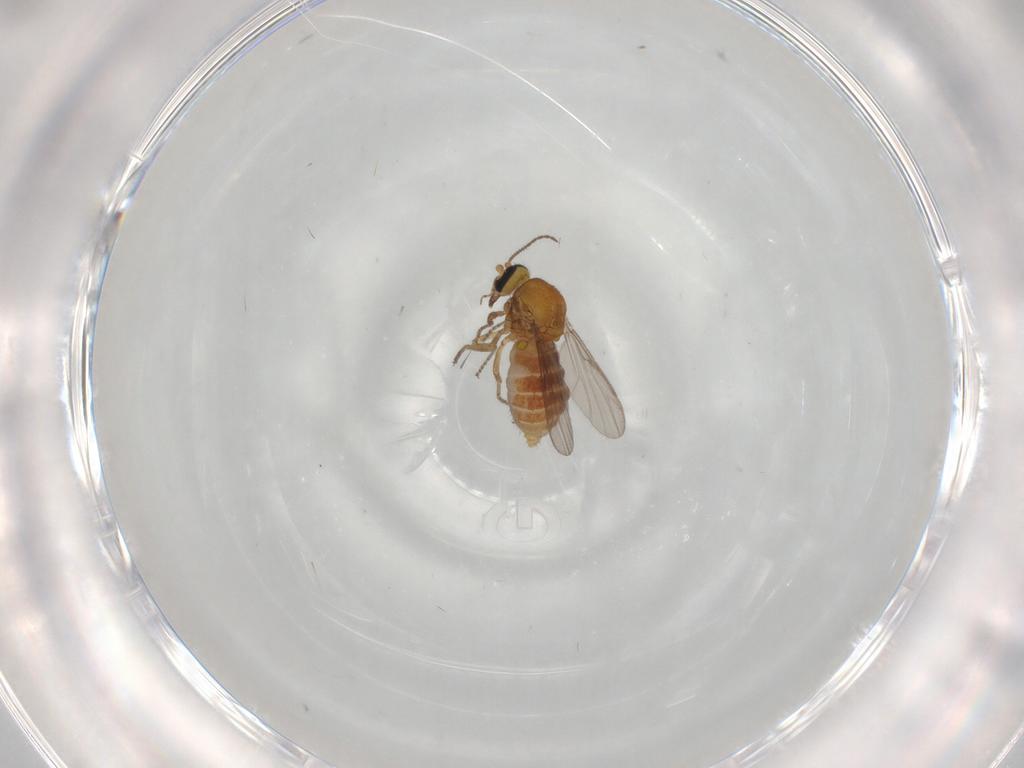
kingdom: Animalia
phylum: Arthropoda
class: Insecta
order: Diptera
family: Ceratopogonidae
